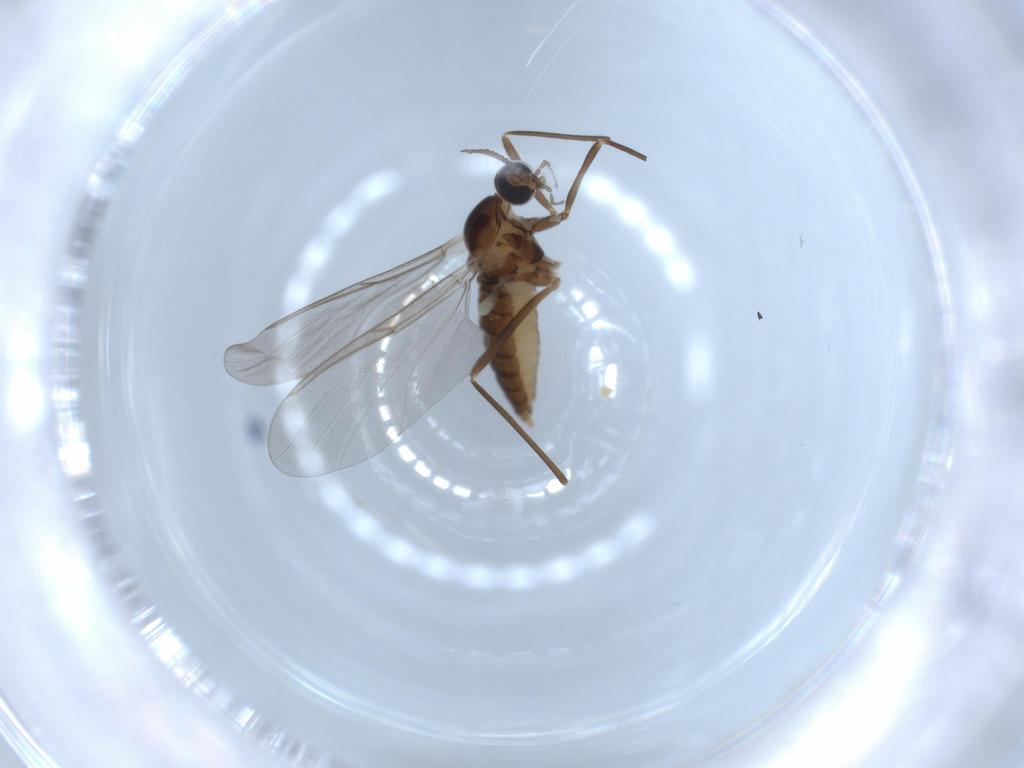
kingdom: Animalia
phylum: Arthropoda
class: Insecta
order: Diptera
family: Cecidomyiidae
